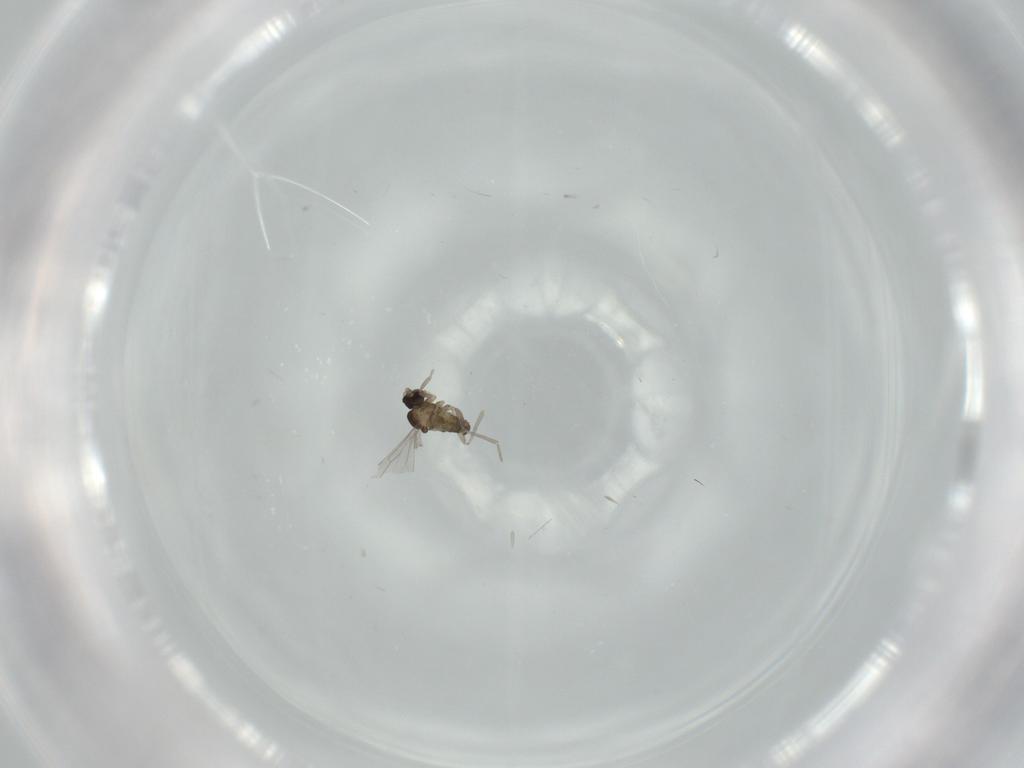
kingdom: Animalia
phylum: Arthropoda
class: Insecta
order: Diptera
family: Cecidomyiidae
